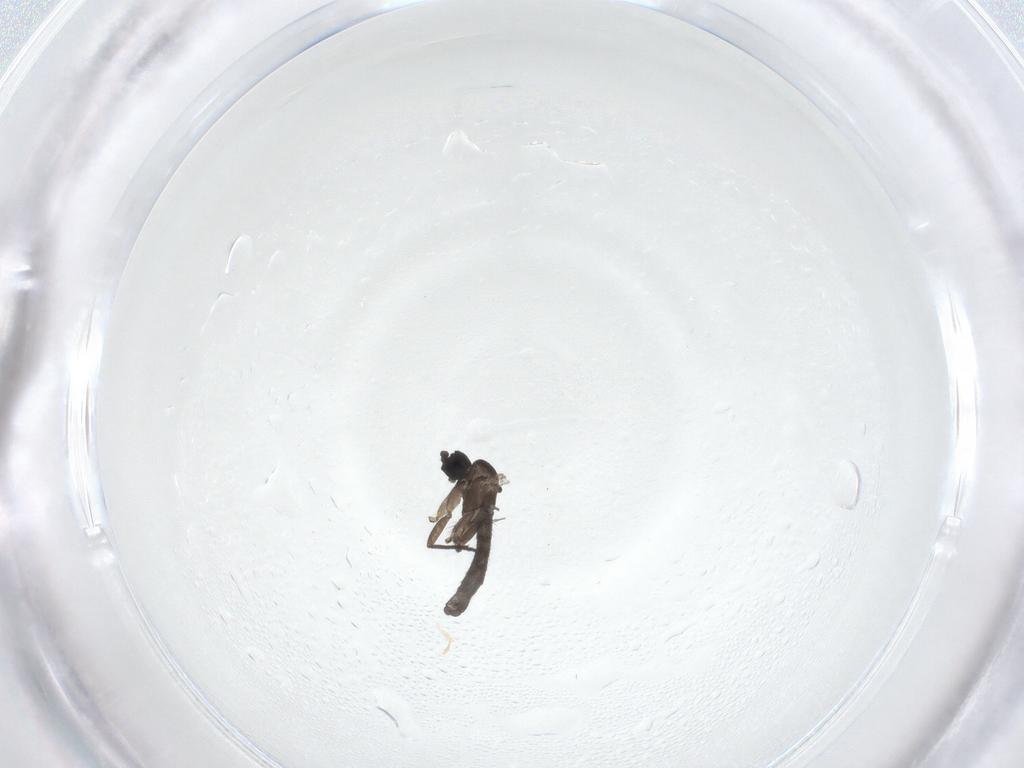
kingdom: Animalia
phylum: Arthropoda
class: Insecta
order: Diptera
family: Sciaridae
